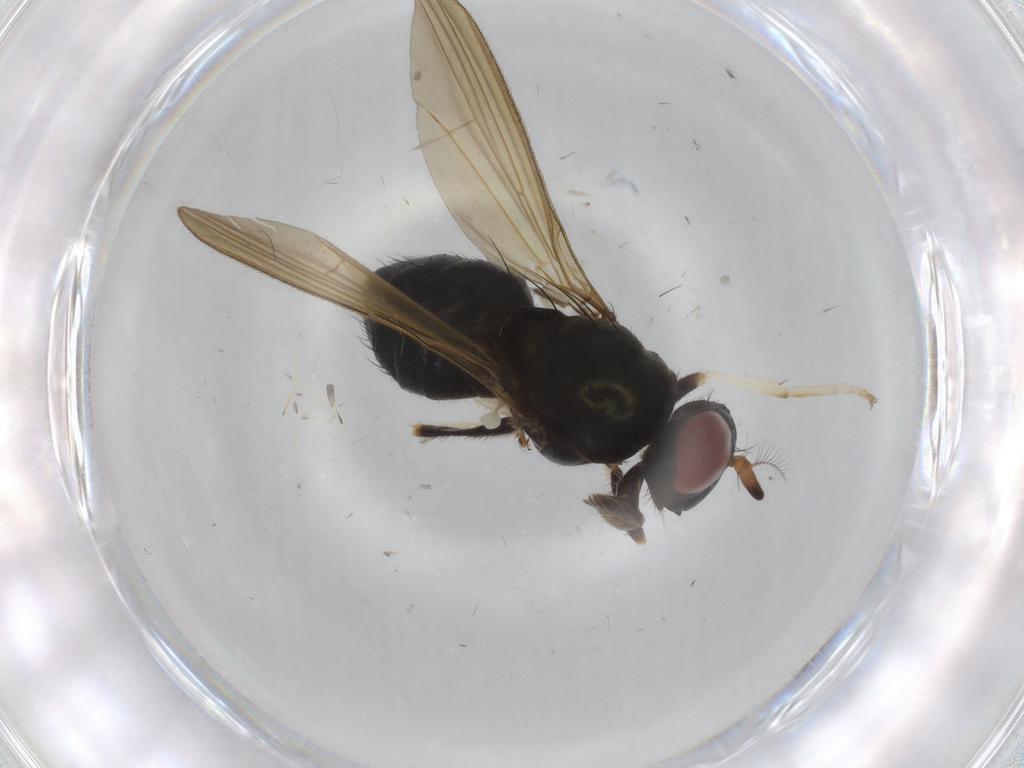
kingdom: Animalia
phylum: Arthropoda
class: Insecta
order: Diptera
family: Lauxaniidae
